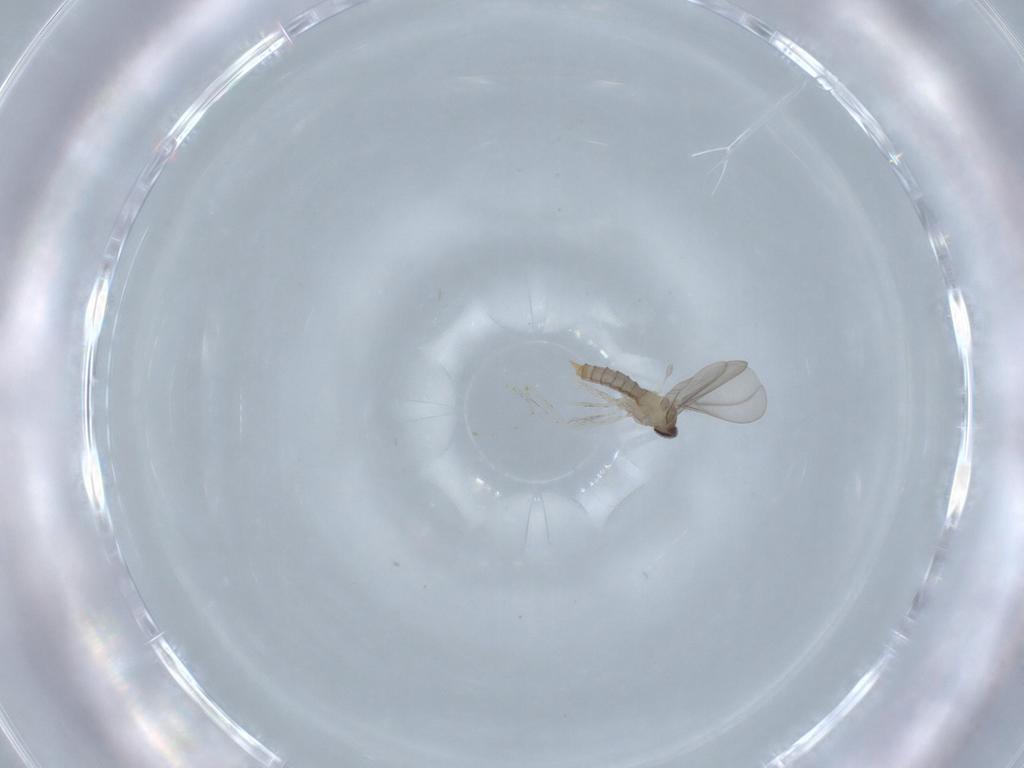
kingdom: Animalia
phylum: Arthropoda
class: Insecta
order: Diptera
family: Cecidomyiidae
